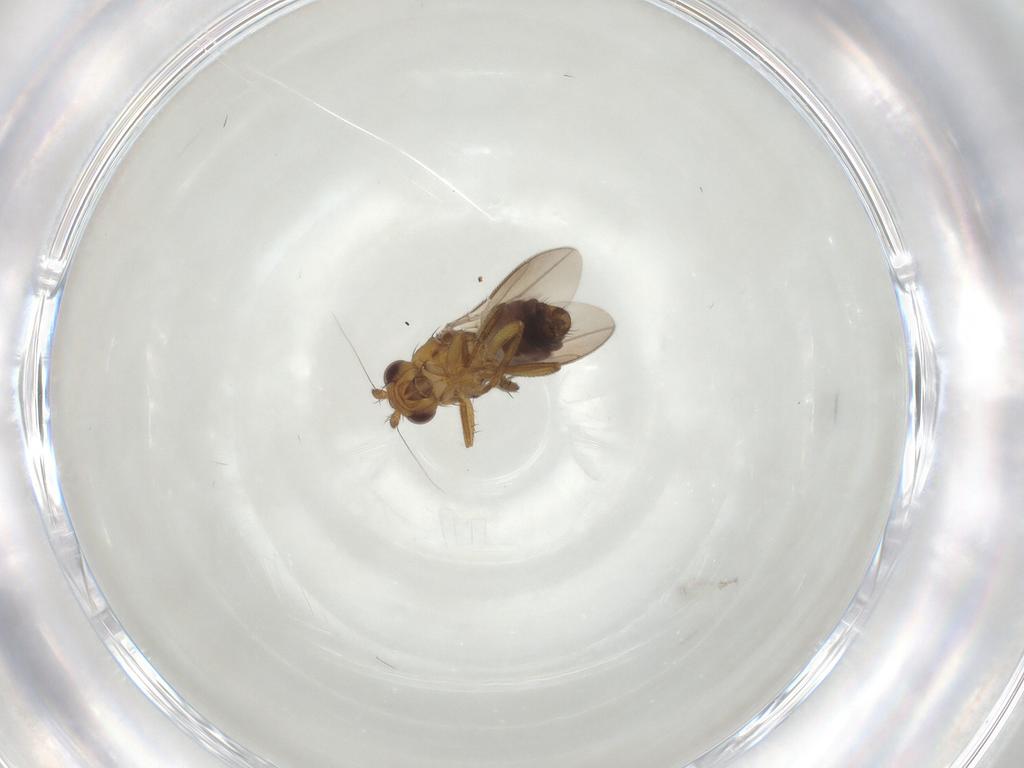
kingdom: Animalia
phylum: Arthropoda
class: Insecta
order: Diptera
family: Sphaeroceridae
